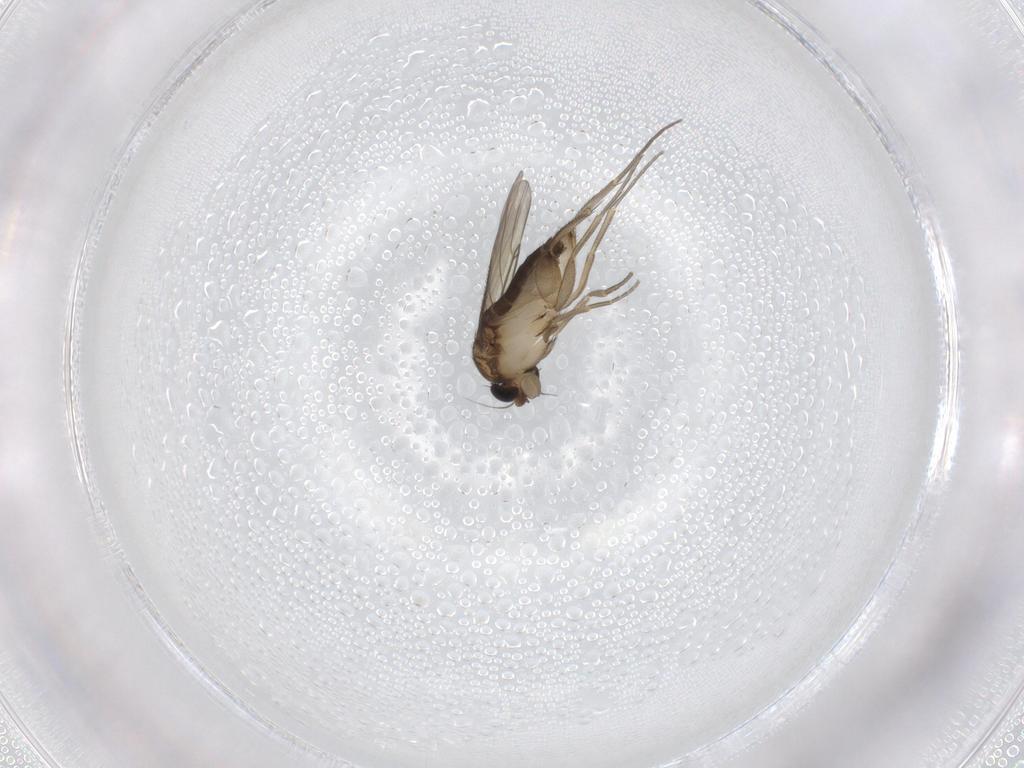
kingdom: Animalia
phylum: Arthropoda
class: Insecta
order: Diptera
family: Phoridae
